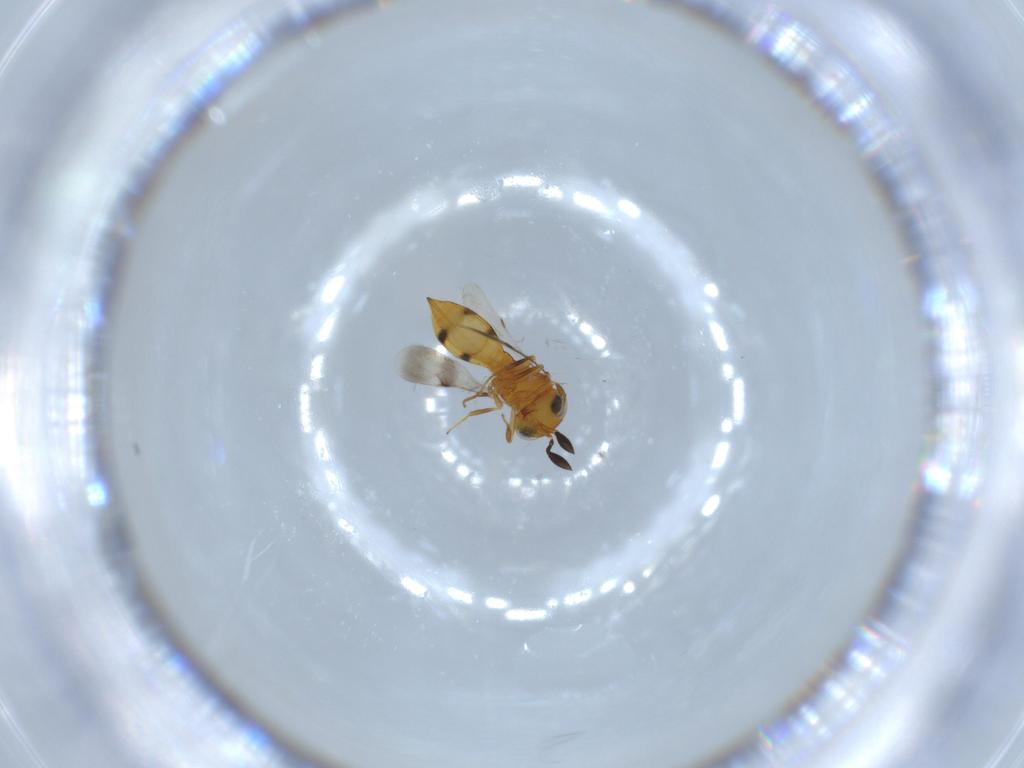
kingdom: Animalia
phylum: Arthropoda
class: Insecta
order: Hymenoptera
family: Scelionidae
